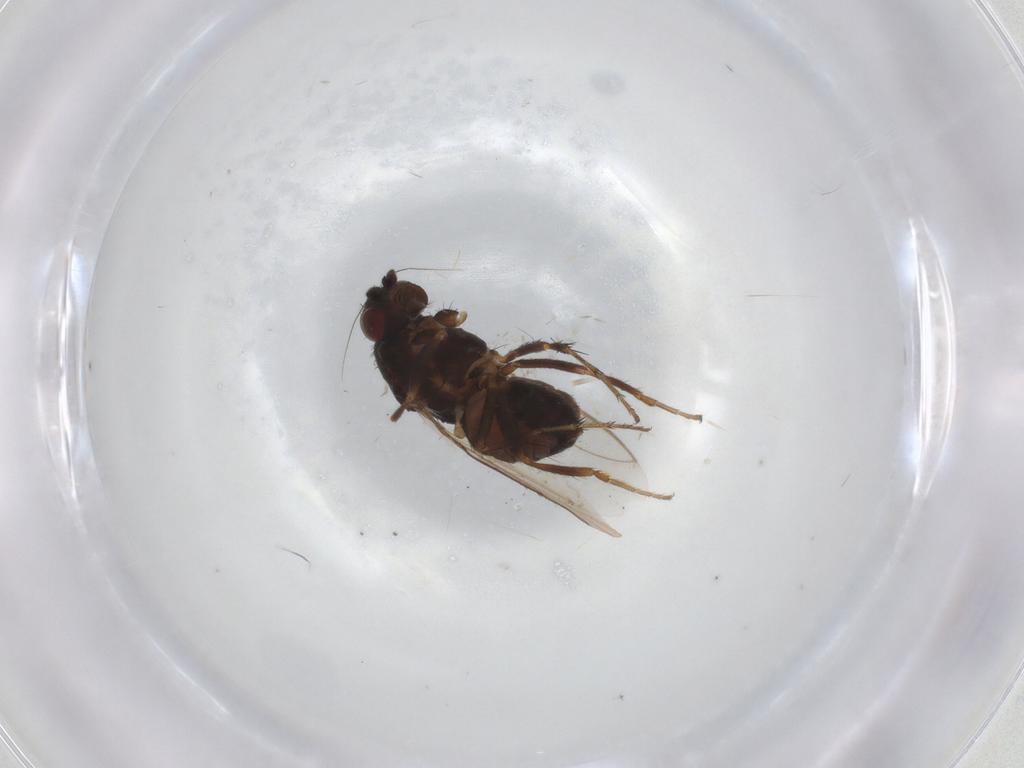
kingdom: Animalia
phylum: Arthropoda
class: Insecta
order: Diptera
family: Sphaeroceridae
